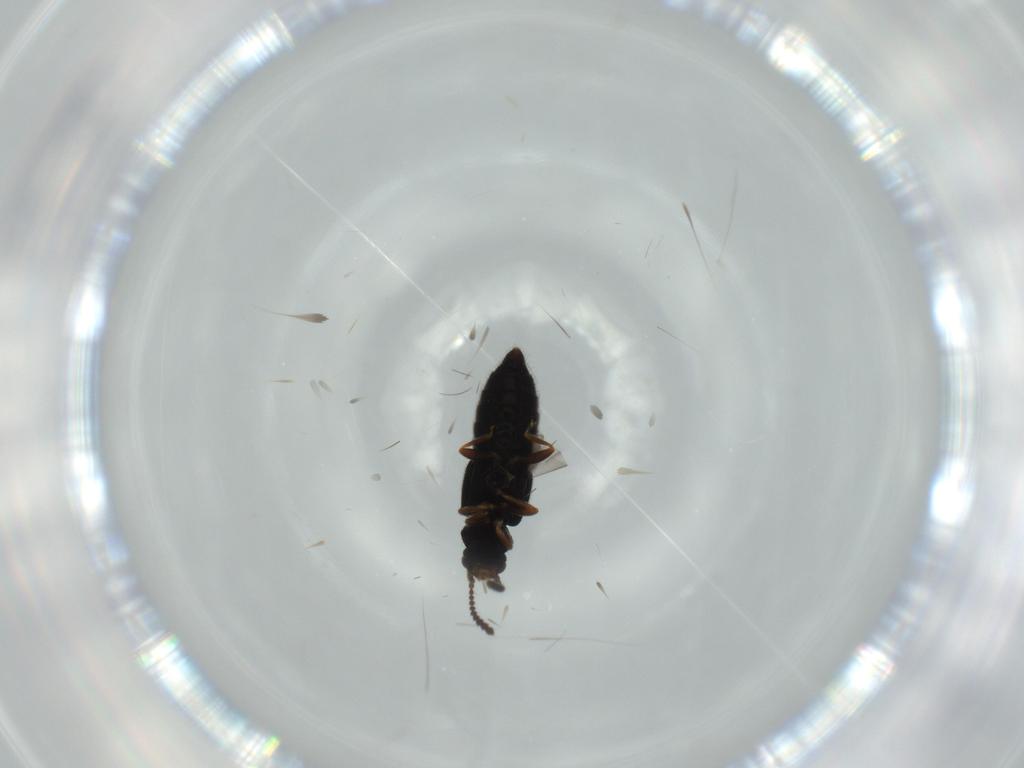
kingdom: Animalia
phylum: Arthropoda
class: Insecta
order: Coleoptera
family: Staphylinidae
